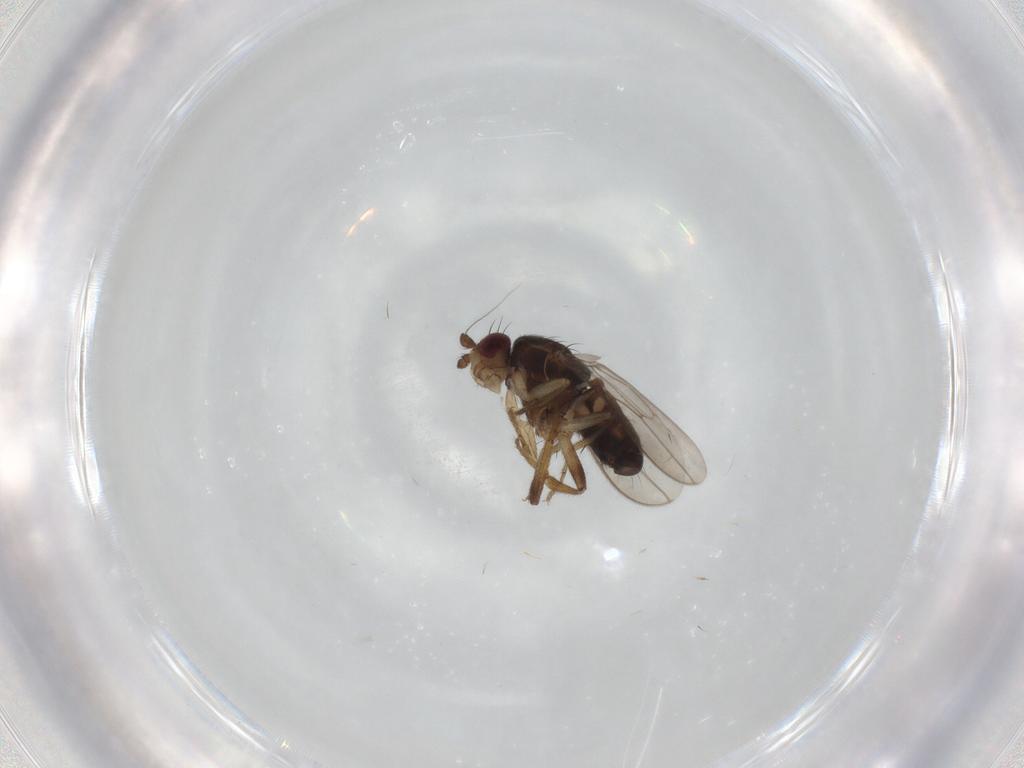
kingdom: Animalia
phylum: Arthropoda
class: Insecta
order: Diptera
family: Sphaeroceridae
